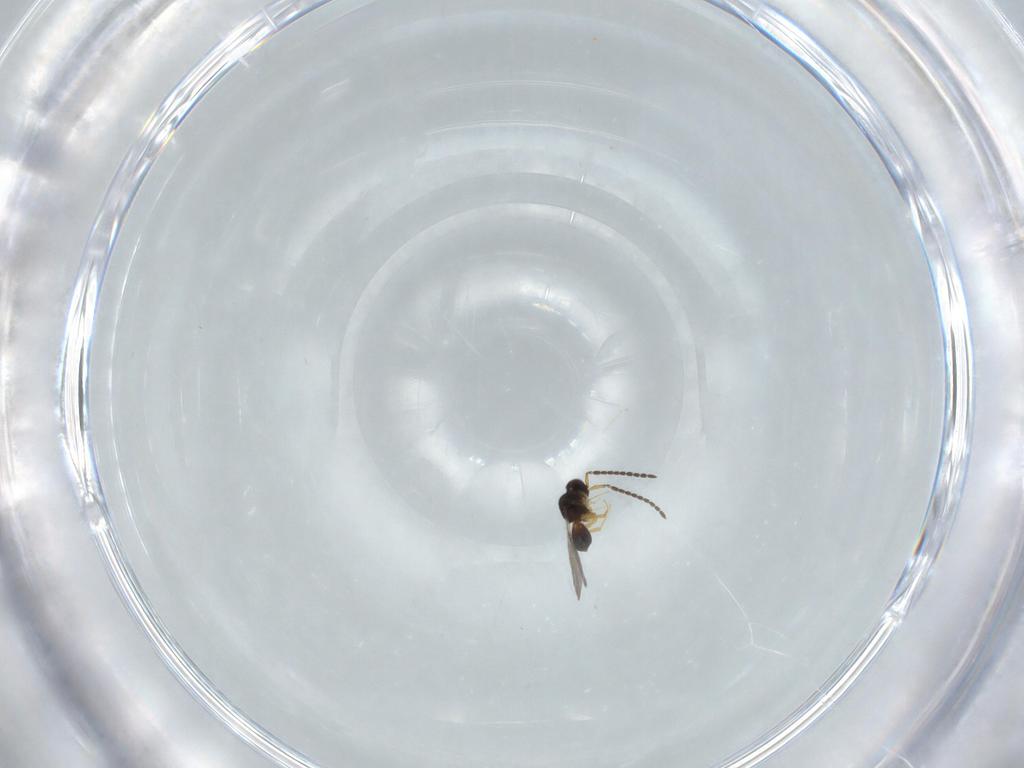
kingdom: Animalia
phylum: Arthropoda
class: Insecta
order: Hymenoptera
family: Ceraphronidae
